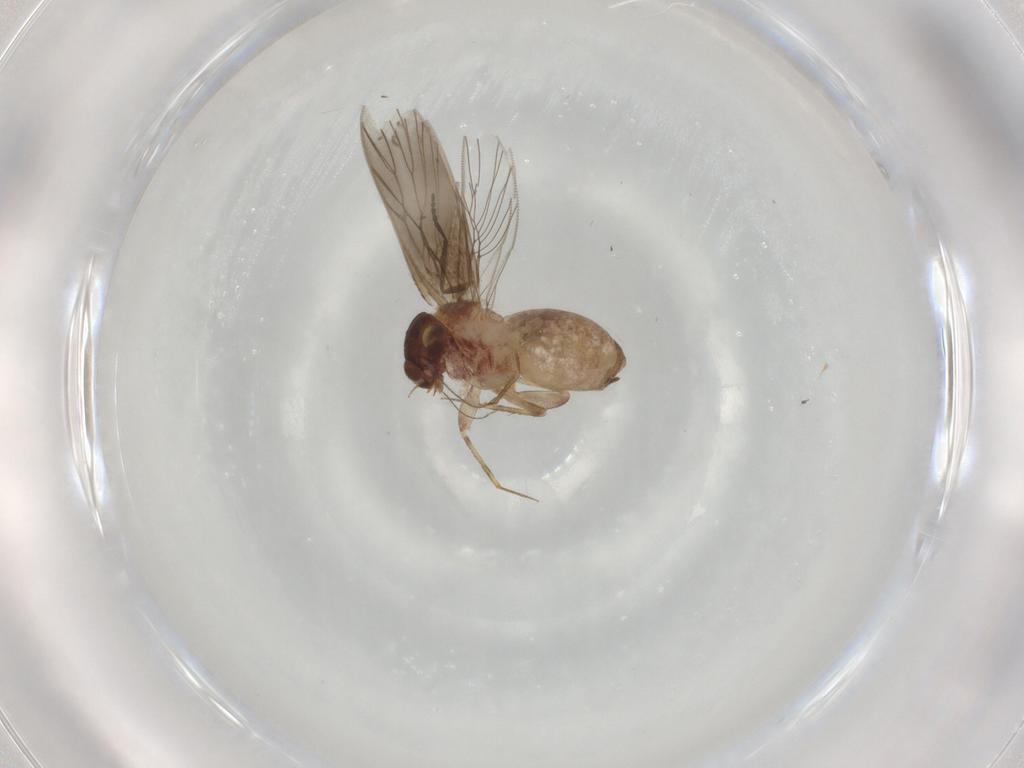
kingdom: Animalia
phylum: Arthropoda
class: Insecta
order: Psocodea
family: Lepidopsocidae
